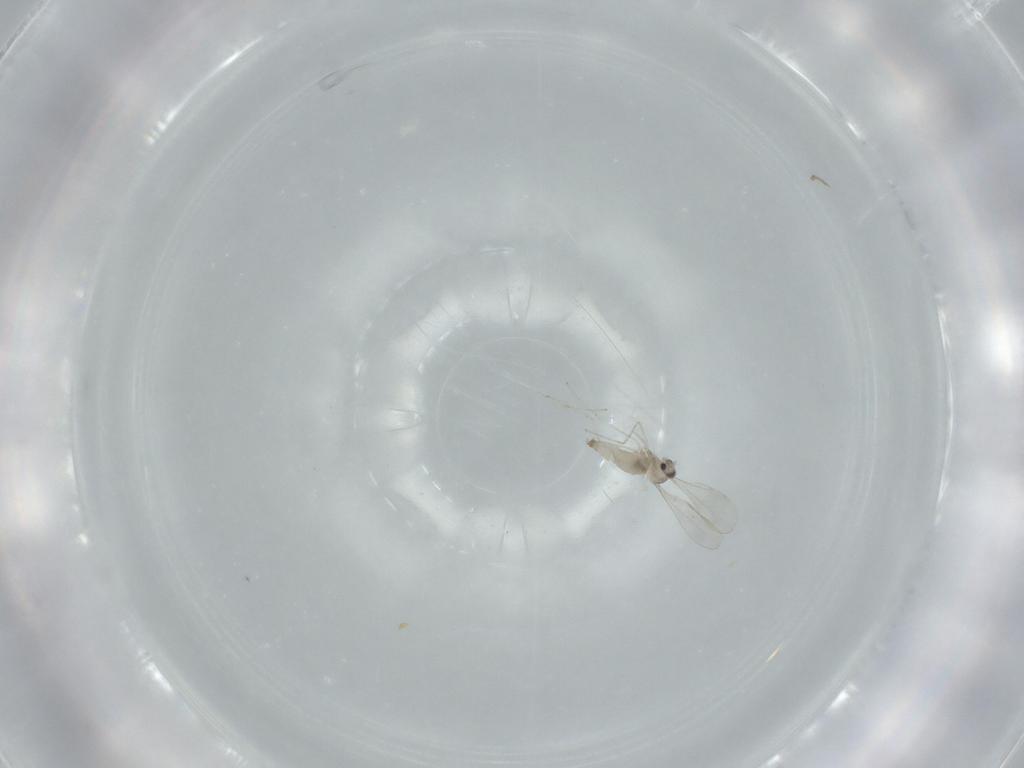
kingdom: Animalia
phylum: Arthropoda
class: Insecta
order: Diptera
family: Cecidomyiidae
